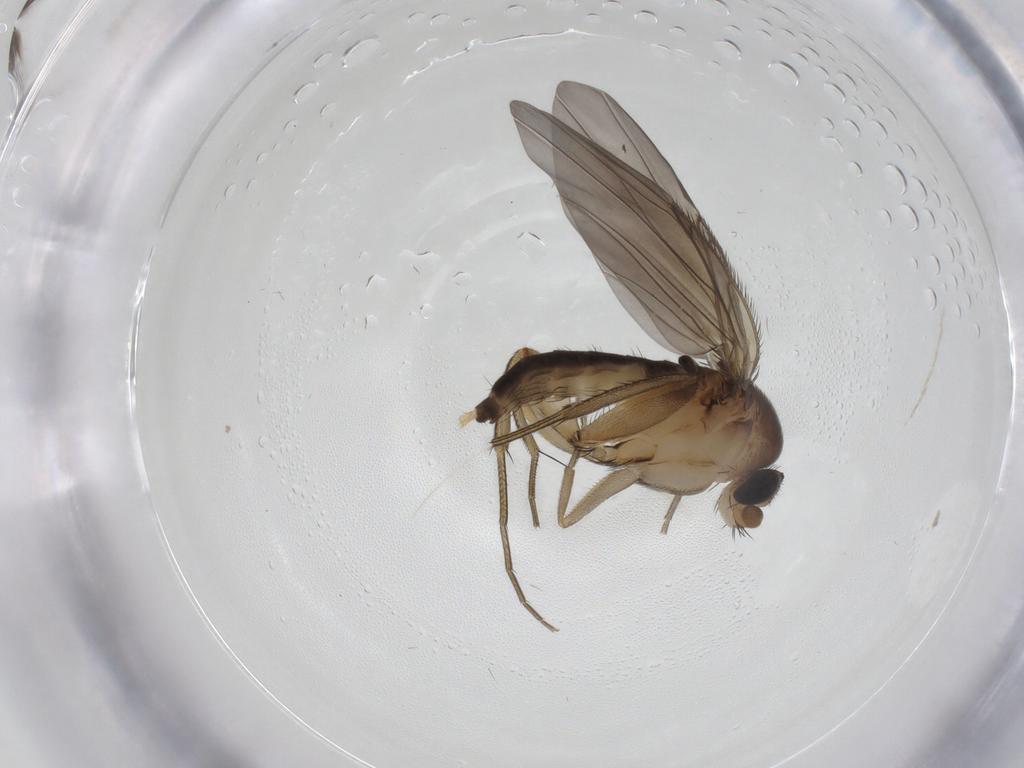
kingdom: Animalia
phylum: Arthropoda
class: Insecta
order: Diptera
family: Phoridae
